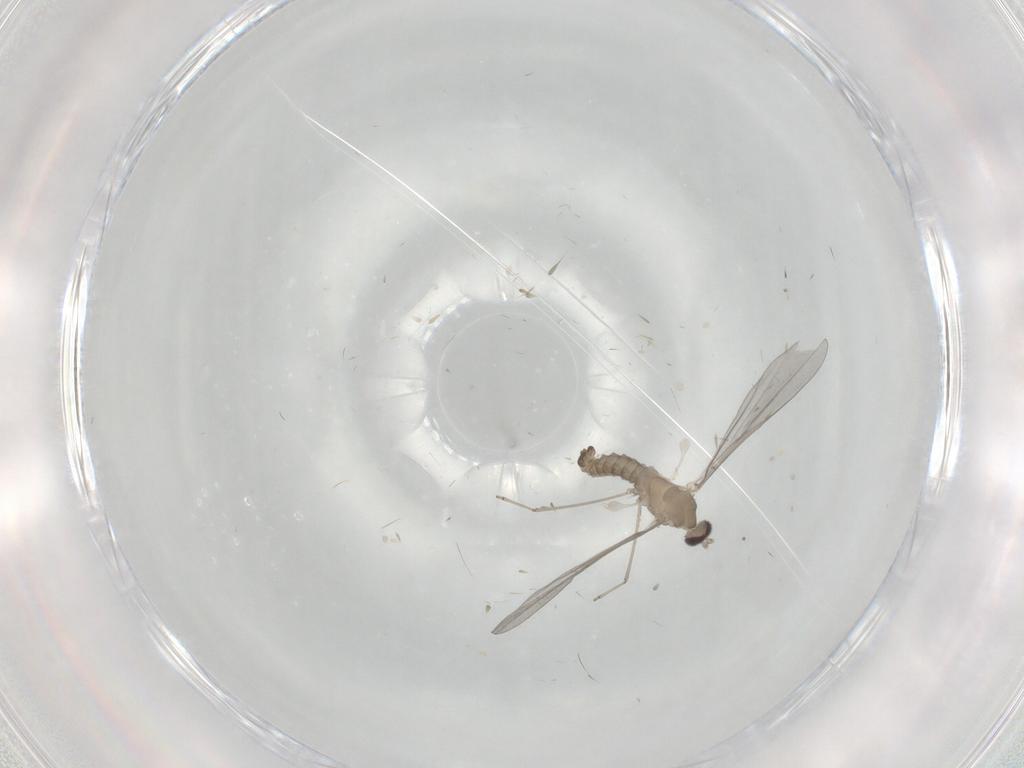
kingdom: Animalia
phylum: Arthropoda
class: Insecta
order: Diptera
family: Cecidomyiidae
